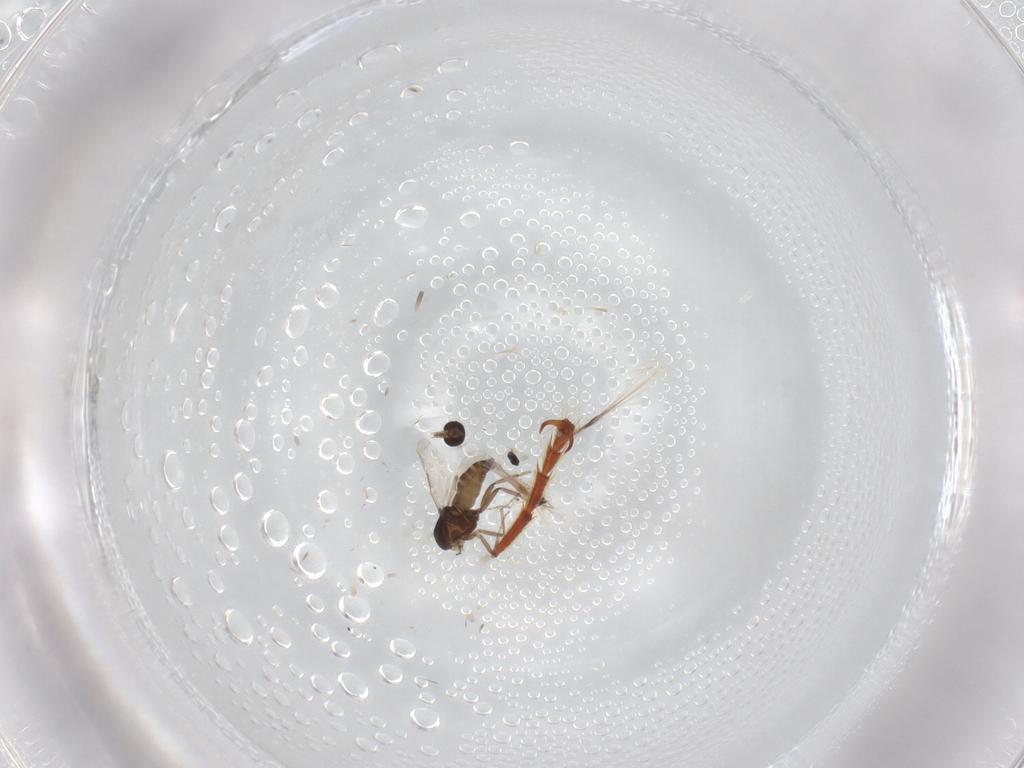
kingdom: Animalia
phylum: Arthropoda
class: Insecta
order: Diptera
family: Ceratopogonidae
